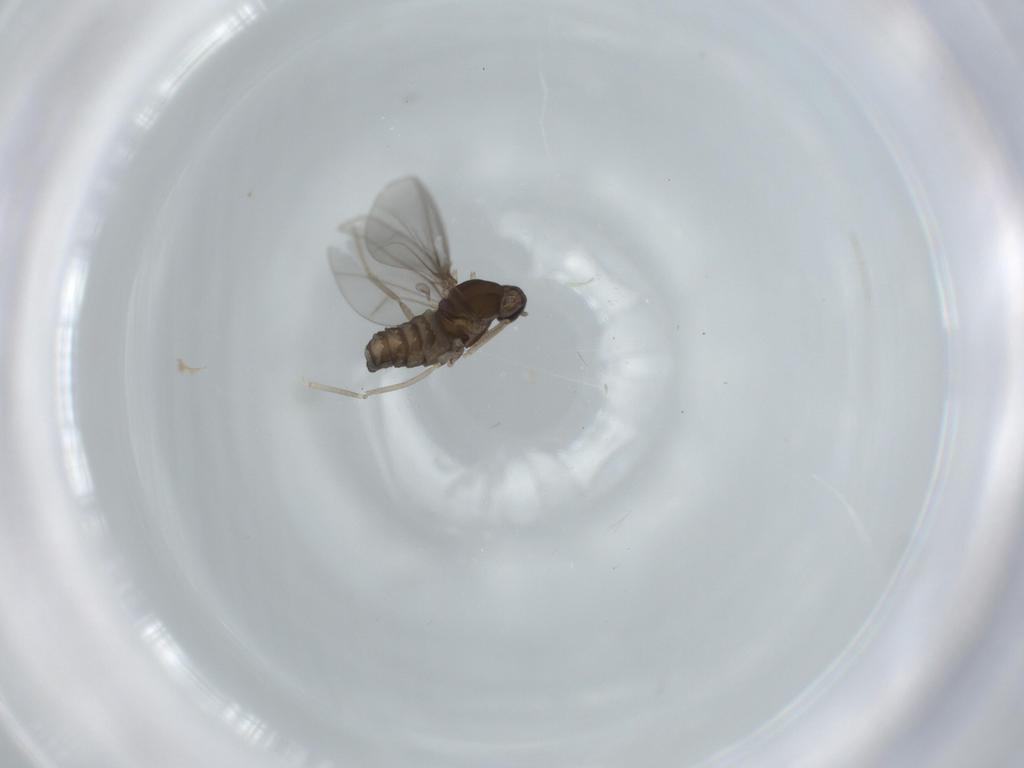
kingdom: Animalia
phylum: Arthropoda
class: Insecta
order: Diptera
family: Cecidomyiidae
